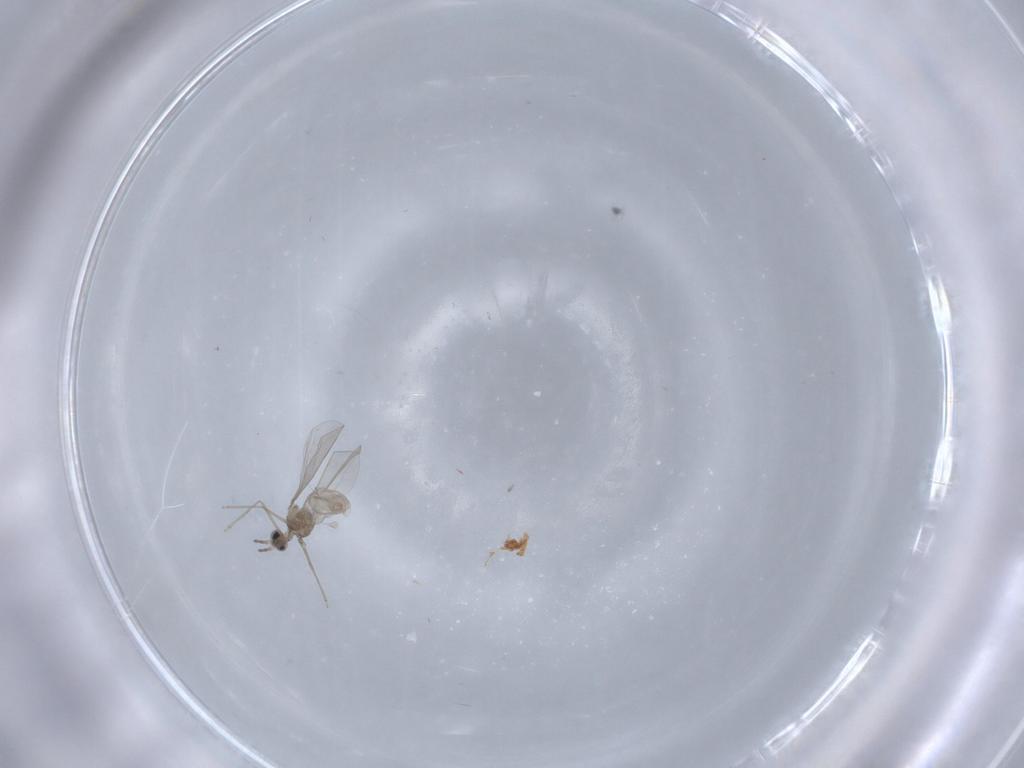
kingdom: Animalia
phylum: Arthropoda
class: Insecta
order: Diptera
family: Cecidomyiidae
